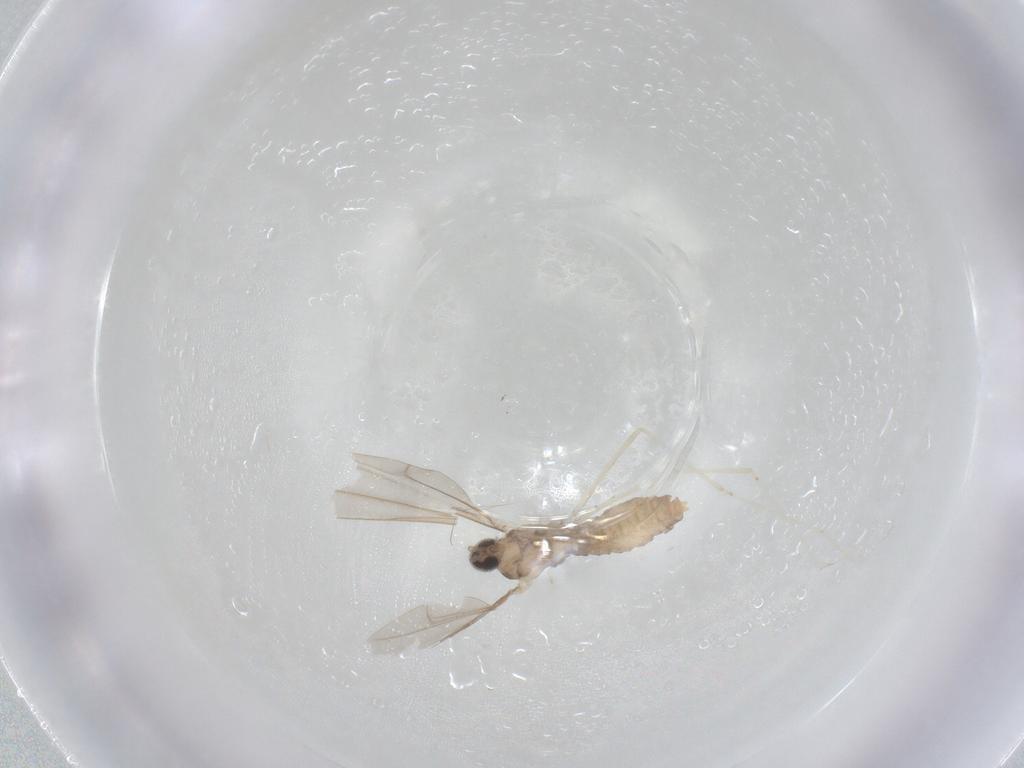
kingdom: Animalia
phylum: Arthropoda
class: Insecta
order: Diptera
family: Cecidomyiidae
